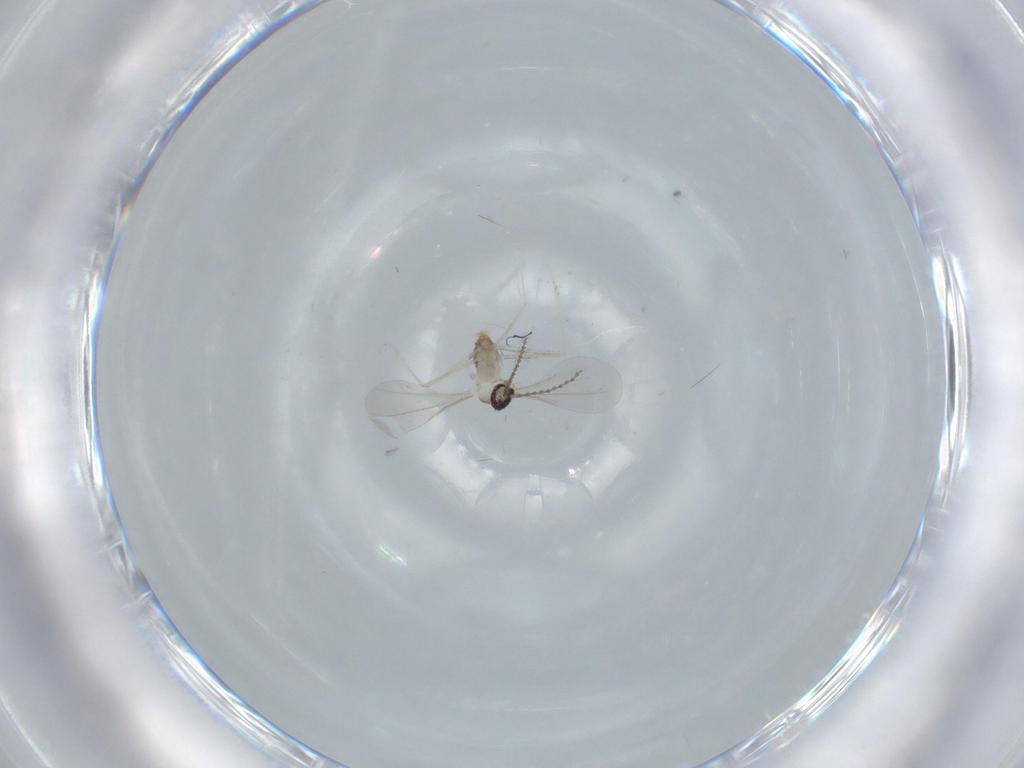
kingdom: Animalia
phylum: Arthropoda
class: Insecta
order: Diptera
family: Cecidomyiidae
